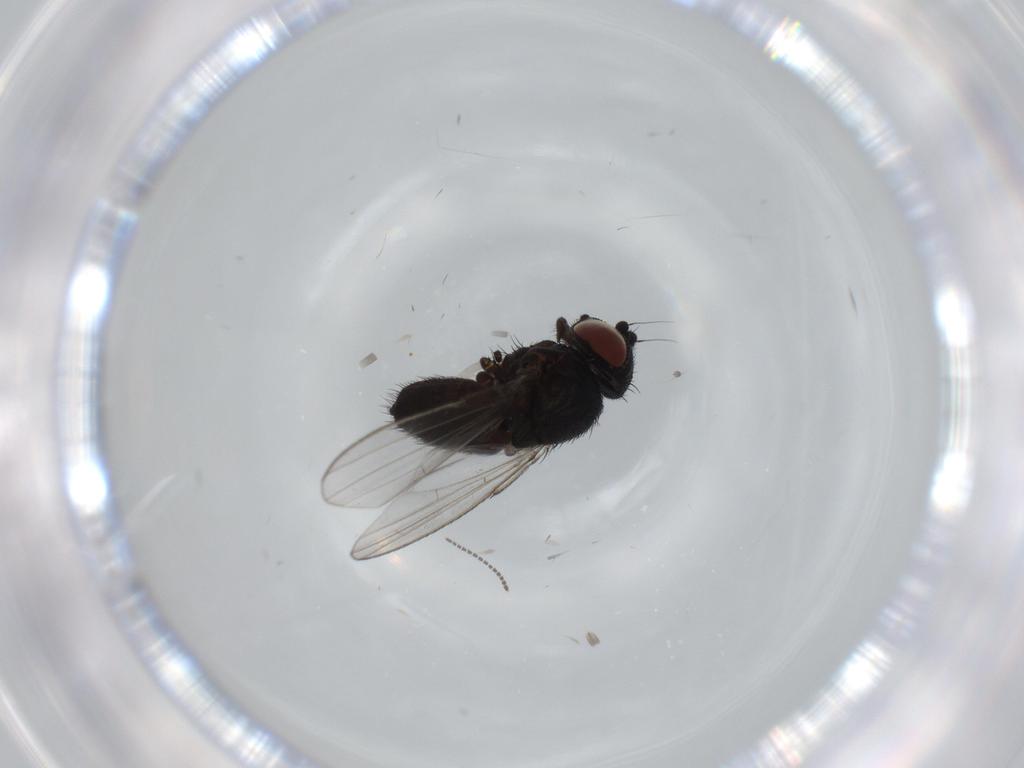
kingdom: Animalia
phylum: Arthropoda
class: Insecta
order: Diptera
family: Milichiidae
